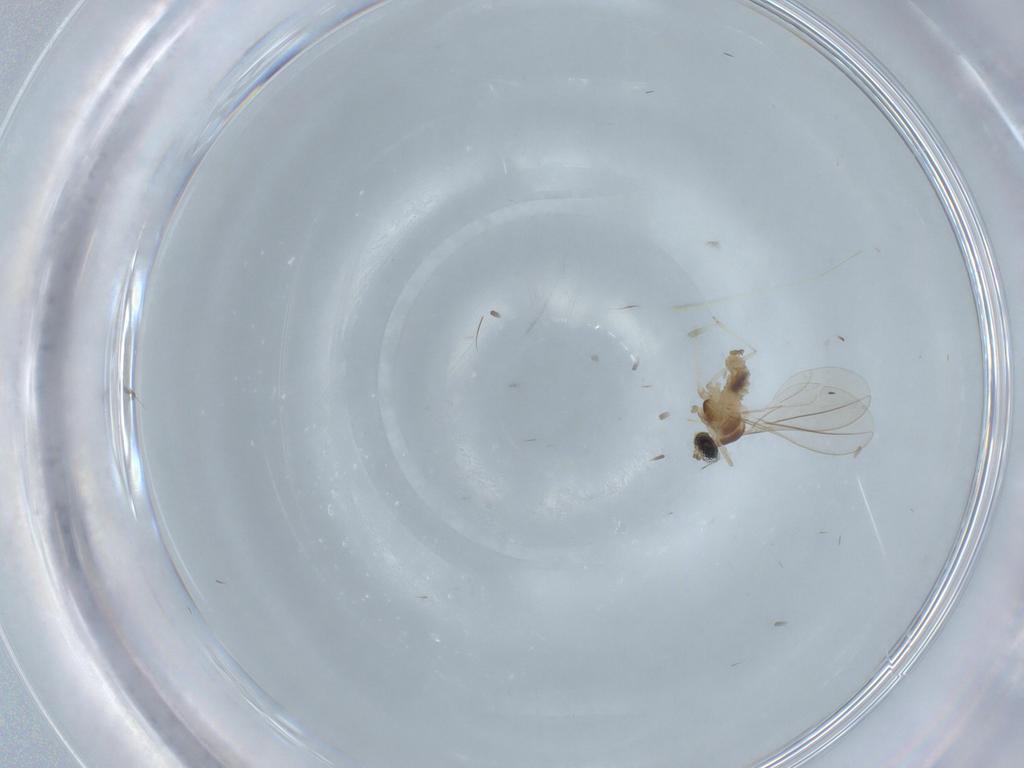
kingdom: Animalia
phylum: Arthropoda
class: Insecta
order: Diptera
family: Cecidomyiidae
